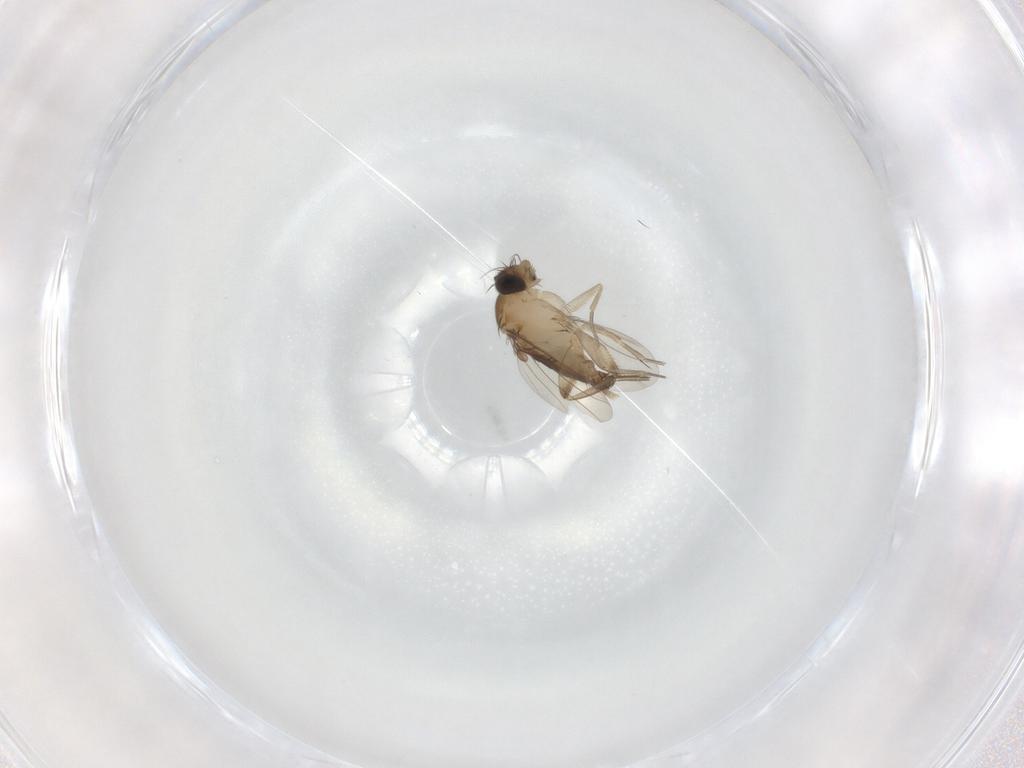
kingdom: Animalia
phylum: Arthropoda
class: Insecta
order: Diptera
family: Phoridae
